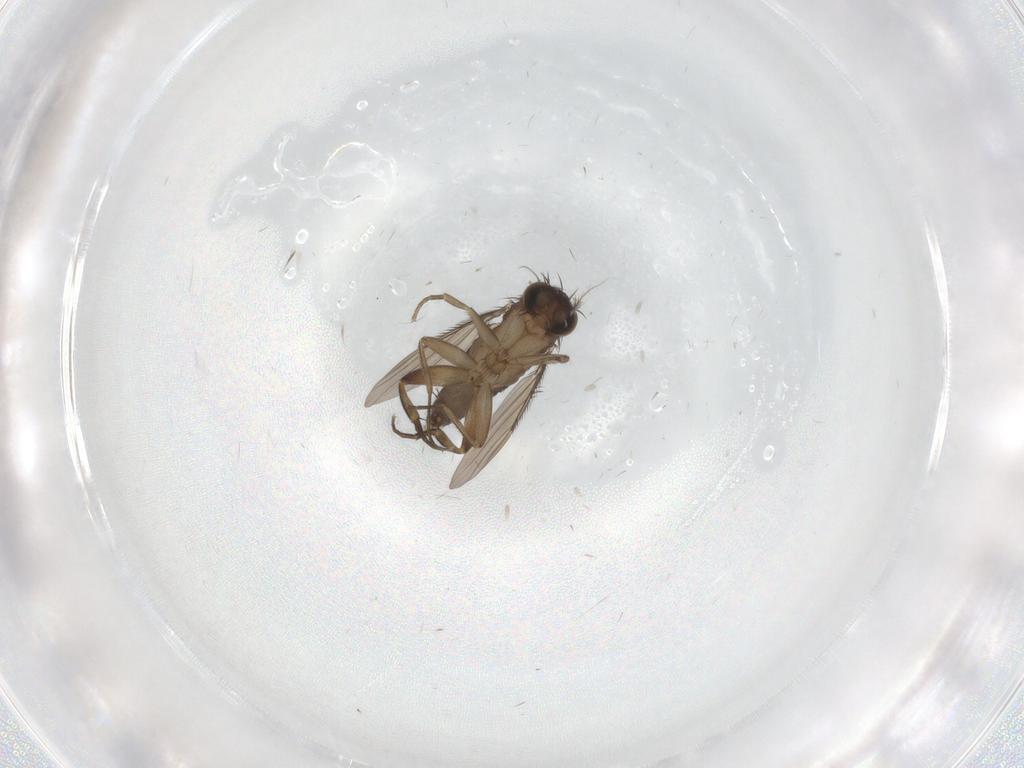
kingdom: Animalia
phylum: Arthropoda
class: Insecta
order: Diptera
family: Phoridae
